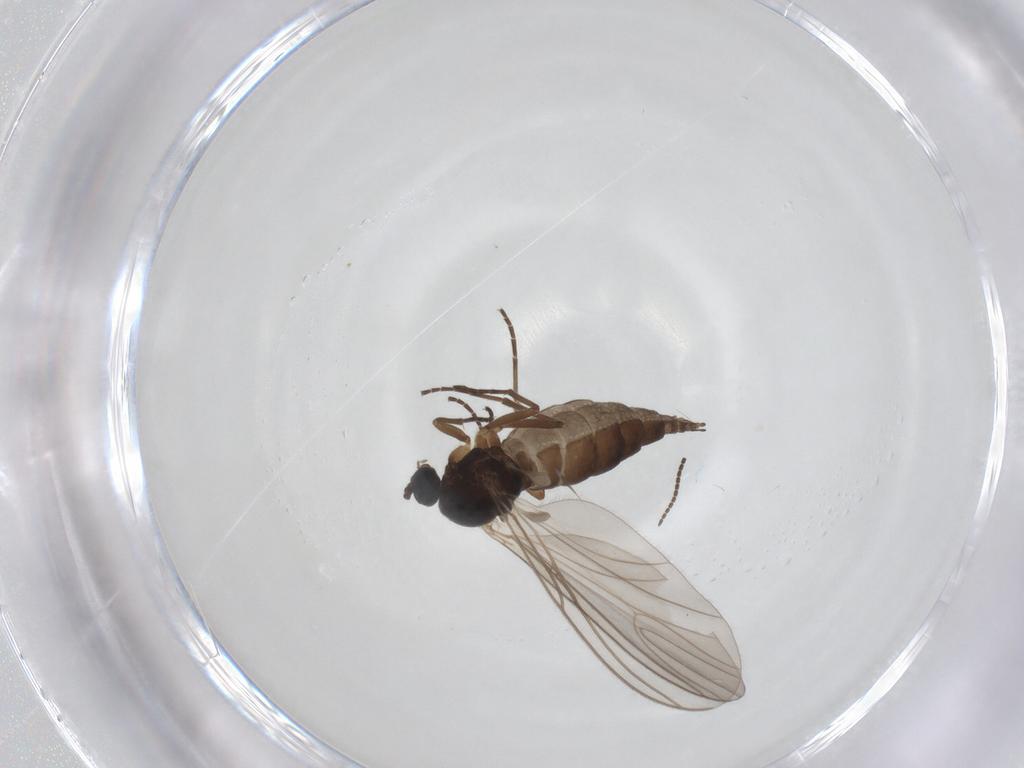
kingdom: Animalia
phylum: Arthropoda
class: Insecta
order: Diptera
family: Sciaridae
